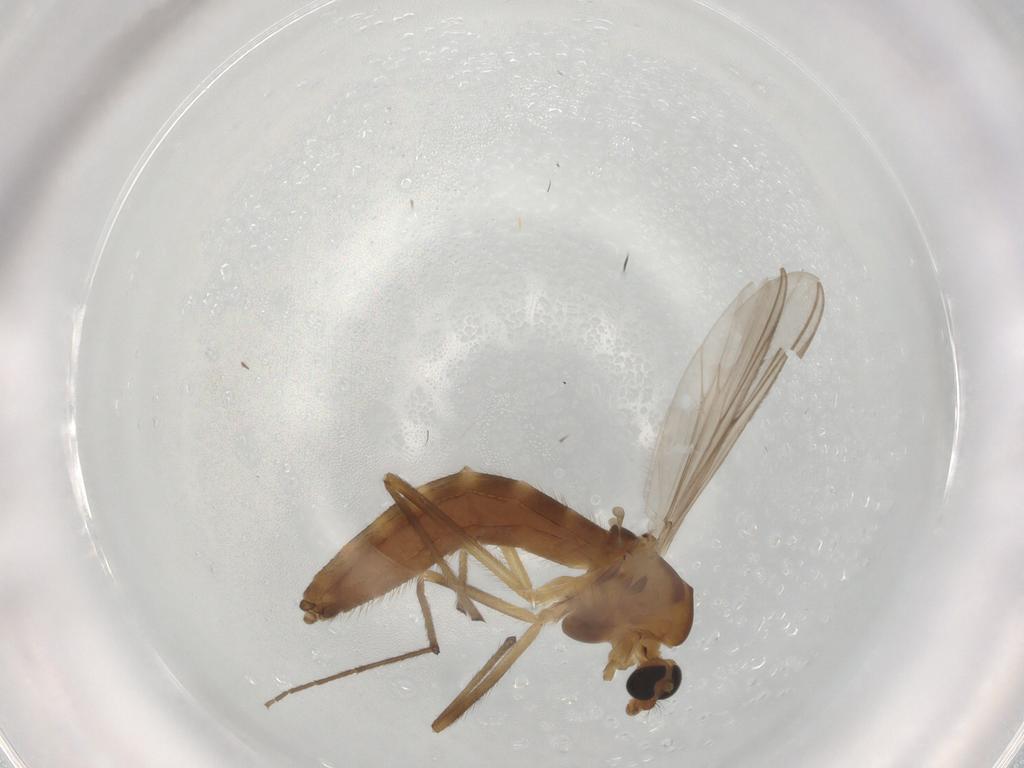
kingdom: Animalia
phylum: Arthropoda
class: Insecta
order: Diptera
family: Chironomidae
